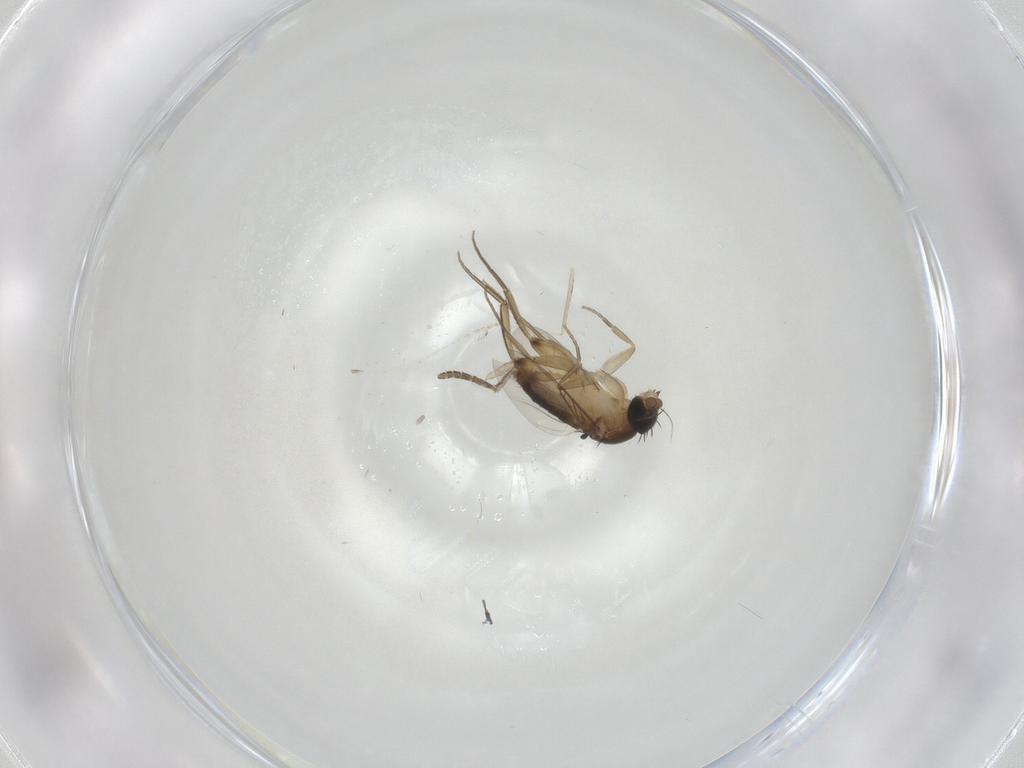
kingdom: Animalia
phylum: Arthropoda
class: Insecta
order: Diptera
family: Phoridae
